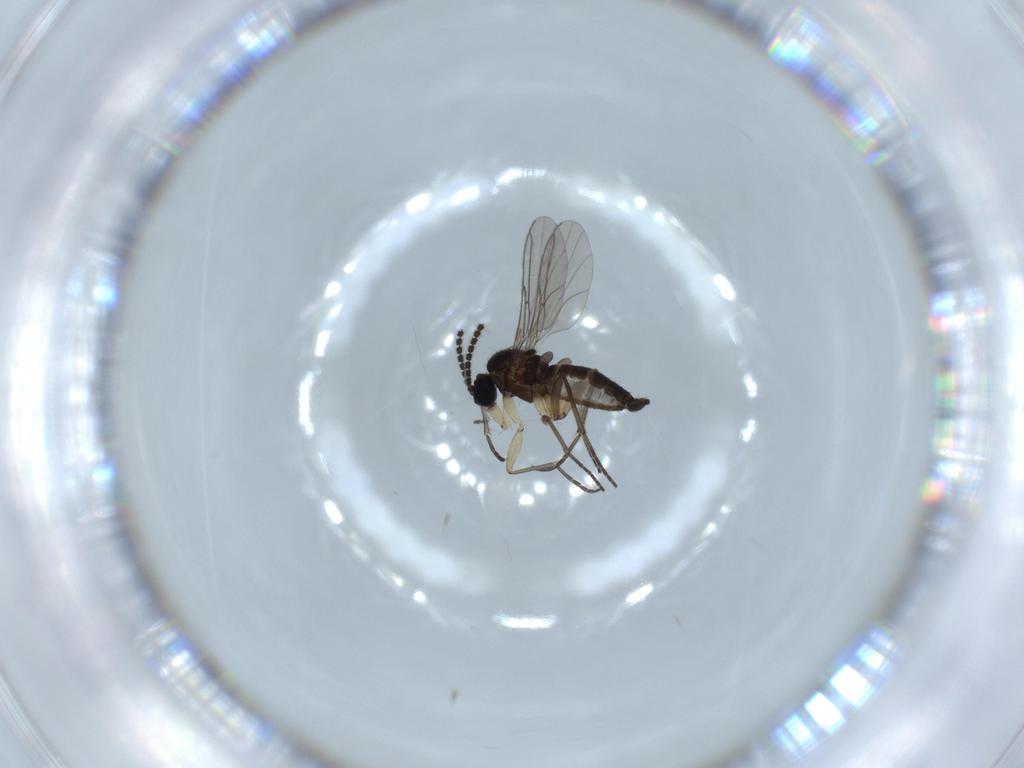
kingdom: Animalia
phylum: Arthropoda
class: Insecta
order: Diptera
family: Sciaridae
